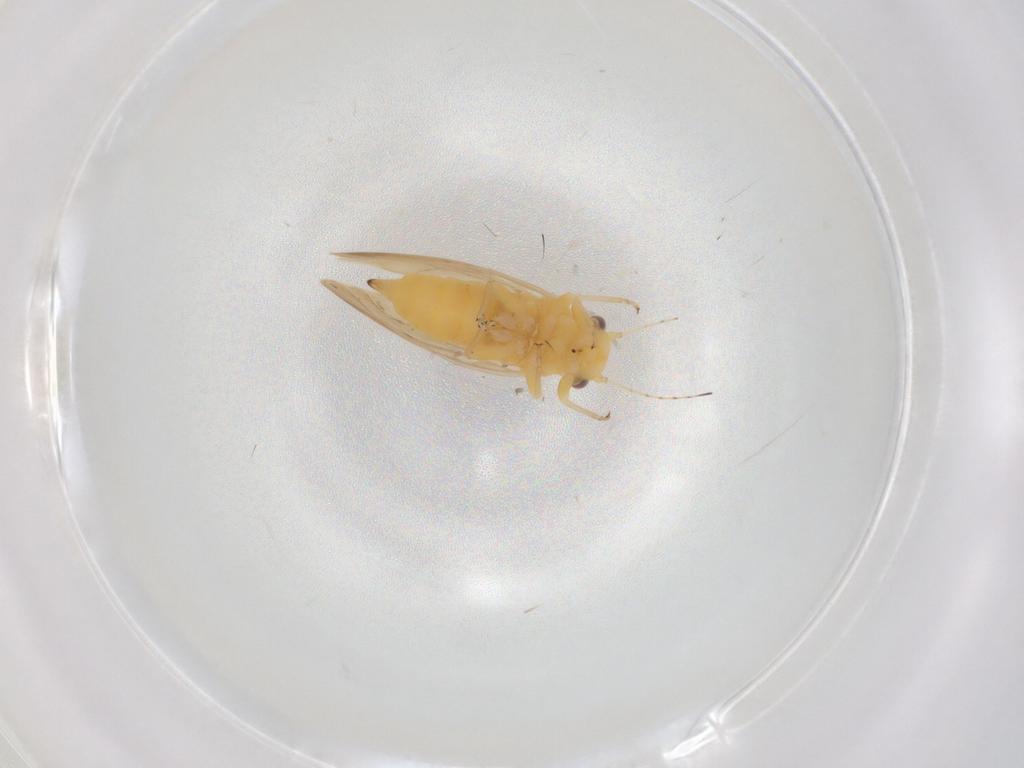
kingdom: Animalia
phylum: Arthropoda
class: Insecta
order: Hemiptera
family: Psylloidea_incertae_sedis
